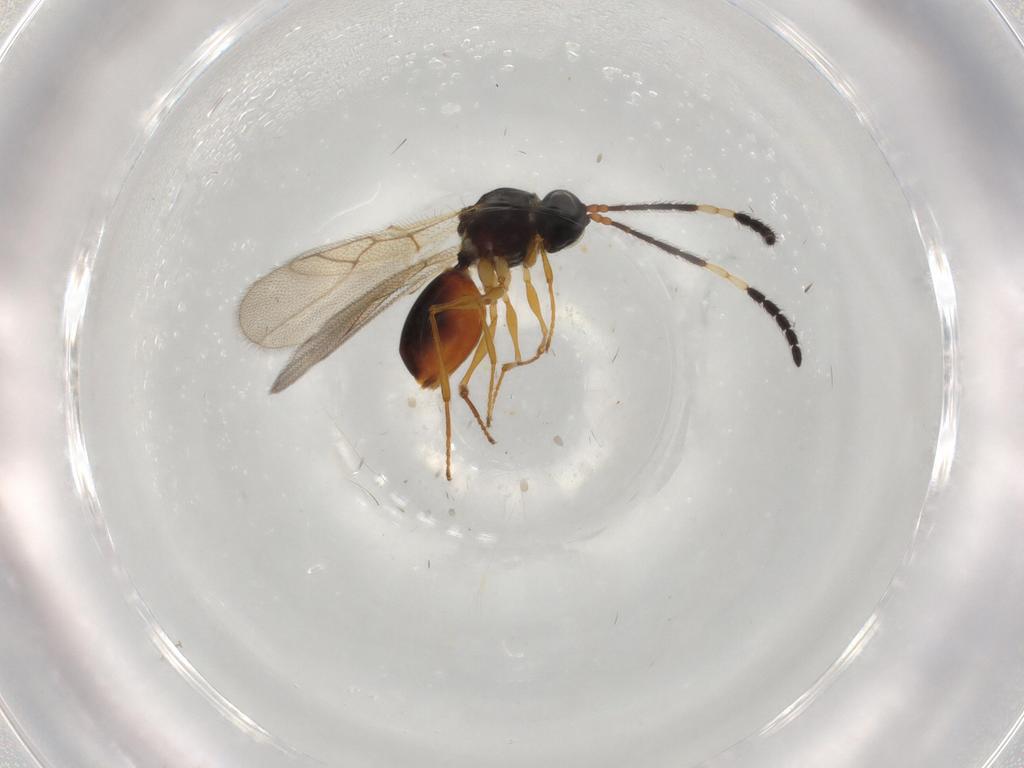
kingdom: Animalia
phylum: Arthropoda
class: Insecta
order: Hymenoptera
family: Figitidae
